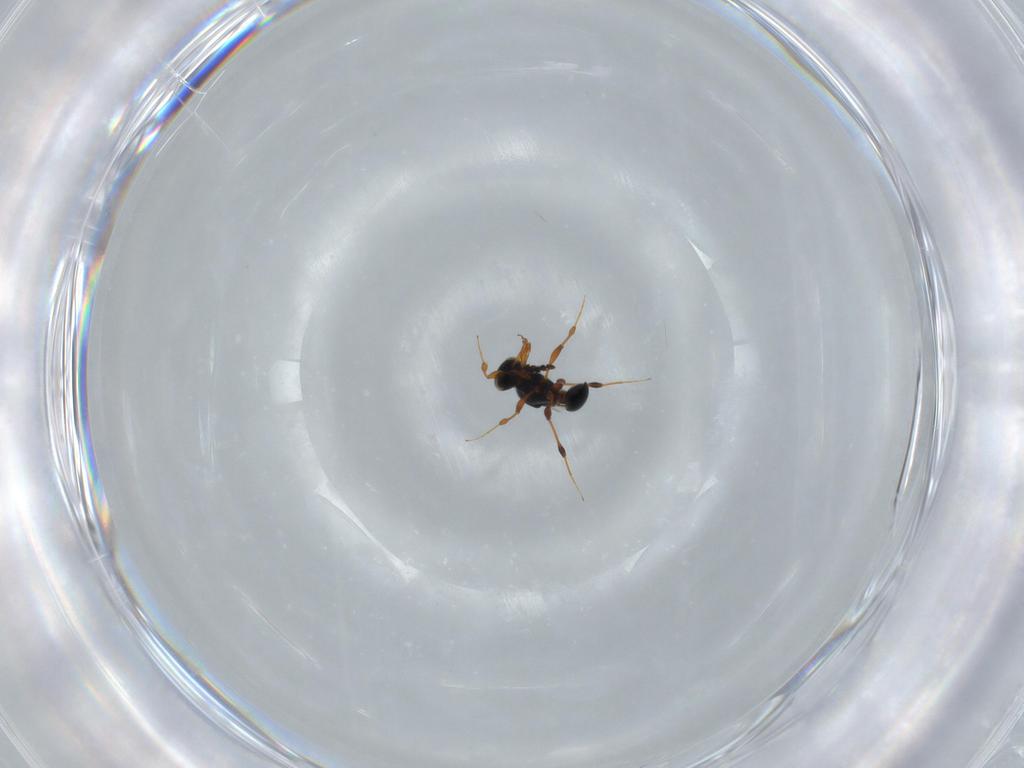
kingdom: Animalia
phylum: Arthropoda
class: Insecta
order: Hymenoptera
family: Platygastridae
